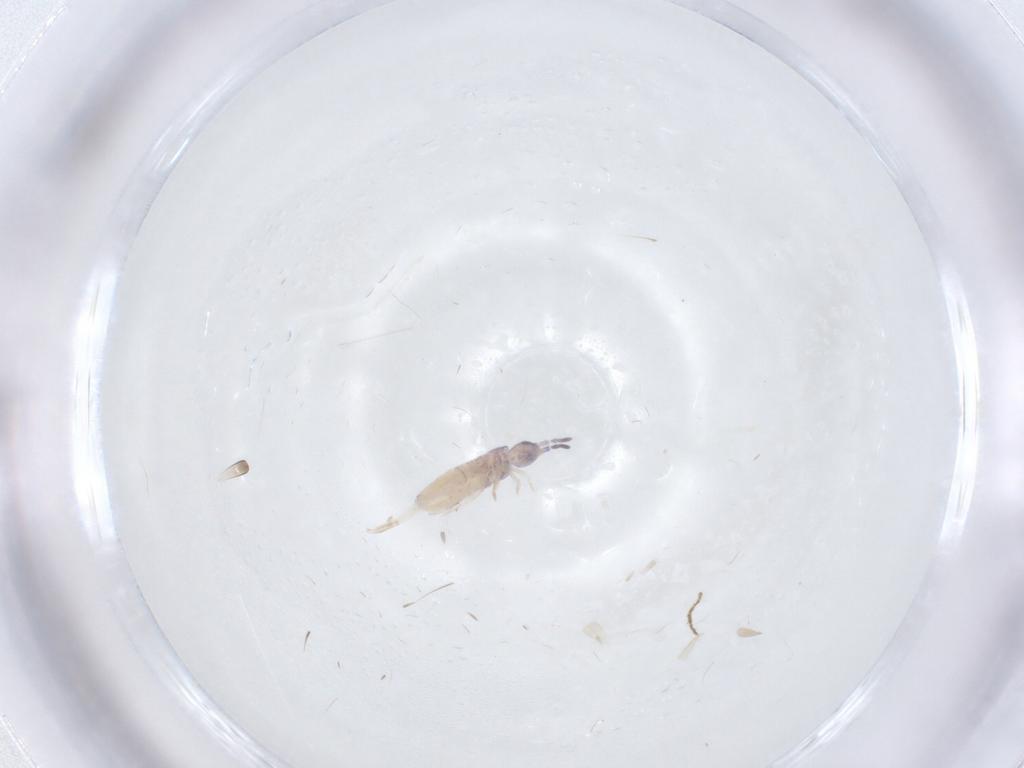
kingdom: Animalia
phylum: Arthropoda
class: Collembola
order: Entomobryomorpha
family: Entomobryidae
